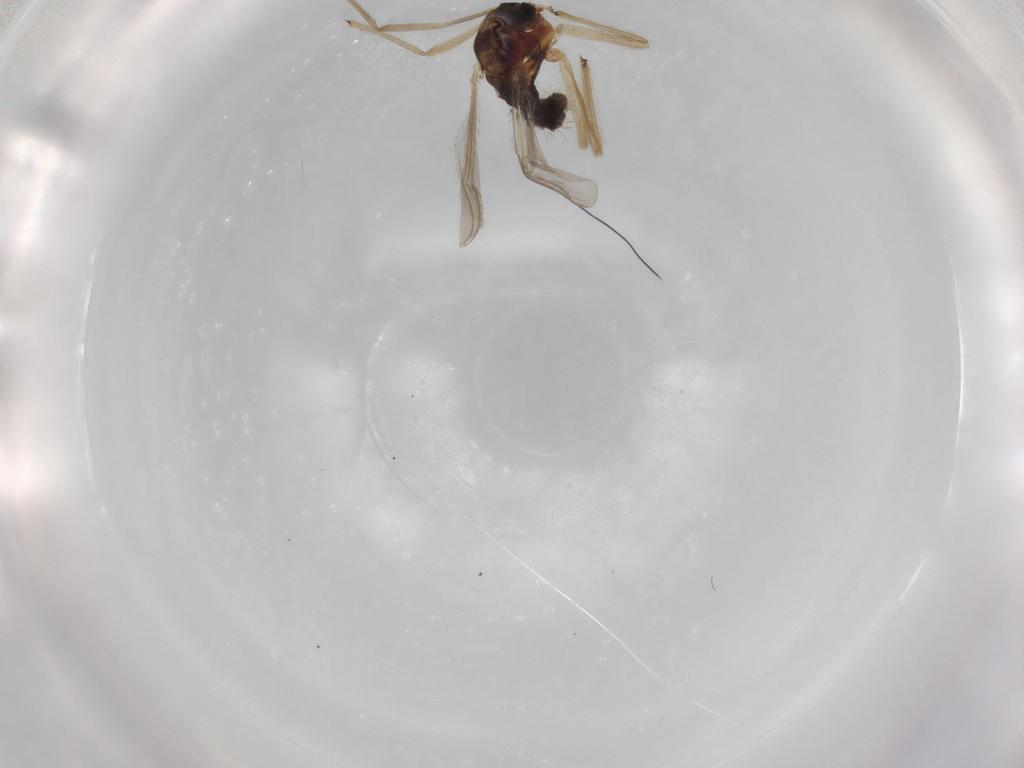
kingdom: Animalia
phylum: Arthropoda
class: Insecta
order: Diptera
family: Chironomidae
